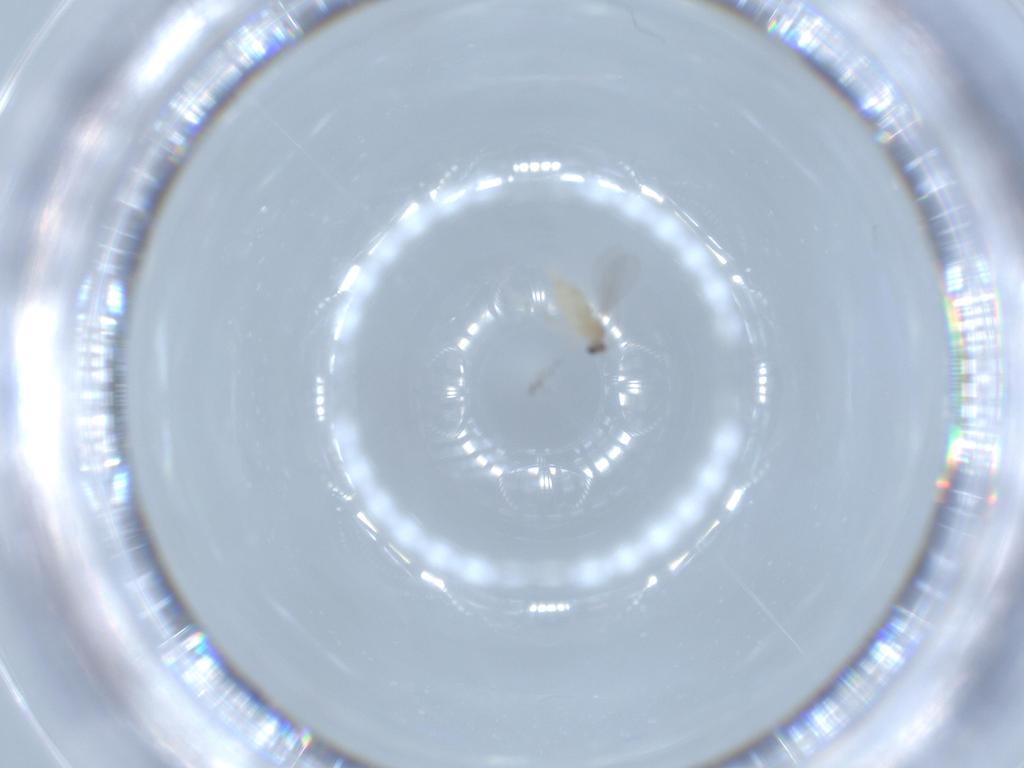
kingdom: Animalia
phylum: Arthropoda
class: Insecta
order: Diptera
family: Cecidomyiidae
